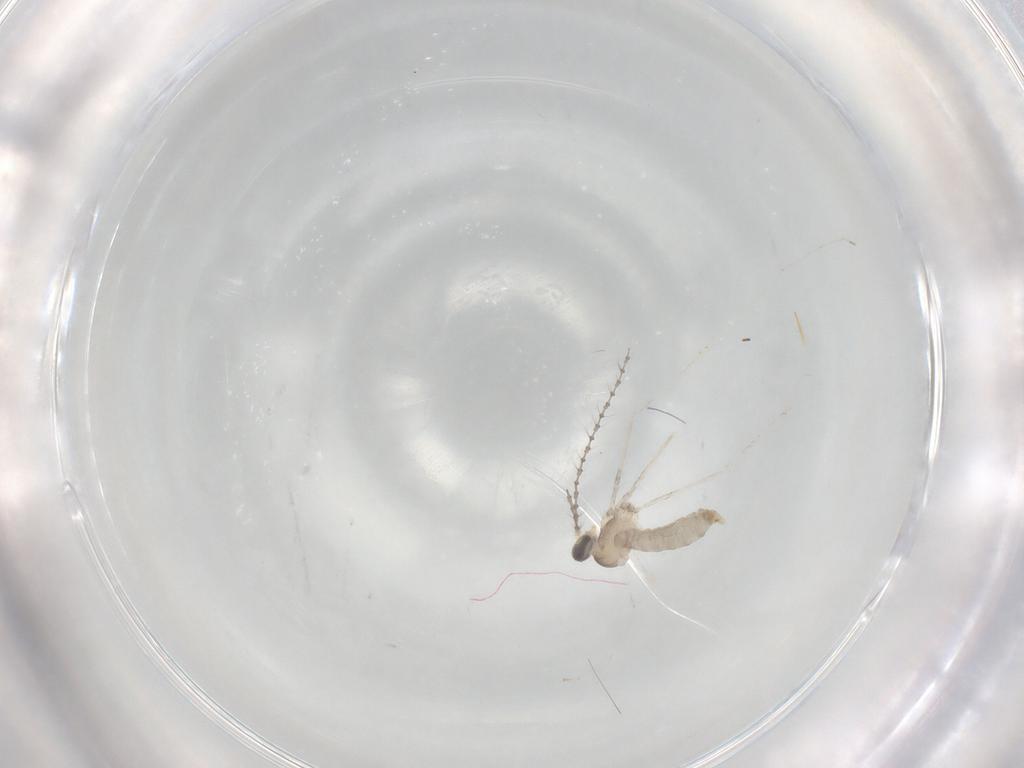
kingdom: Animalia
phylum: Arthropoda
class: Insecta
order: Diptera
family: Cecidomyiidae
